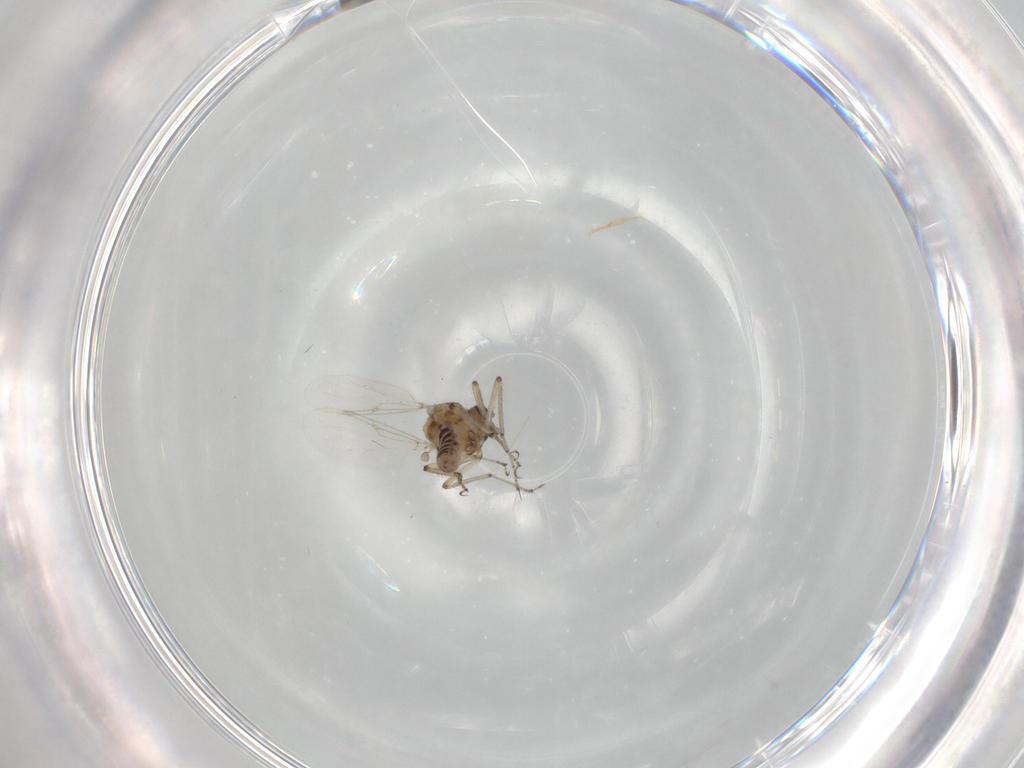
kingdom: Animalia
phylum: Arthropoda
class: Insecta
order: Diptera
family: Ceratopogonidae
